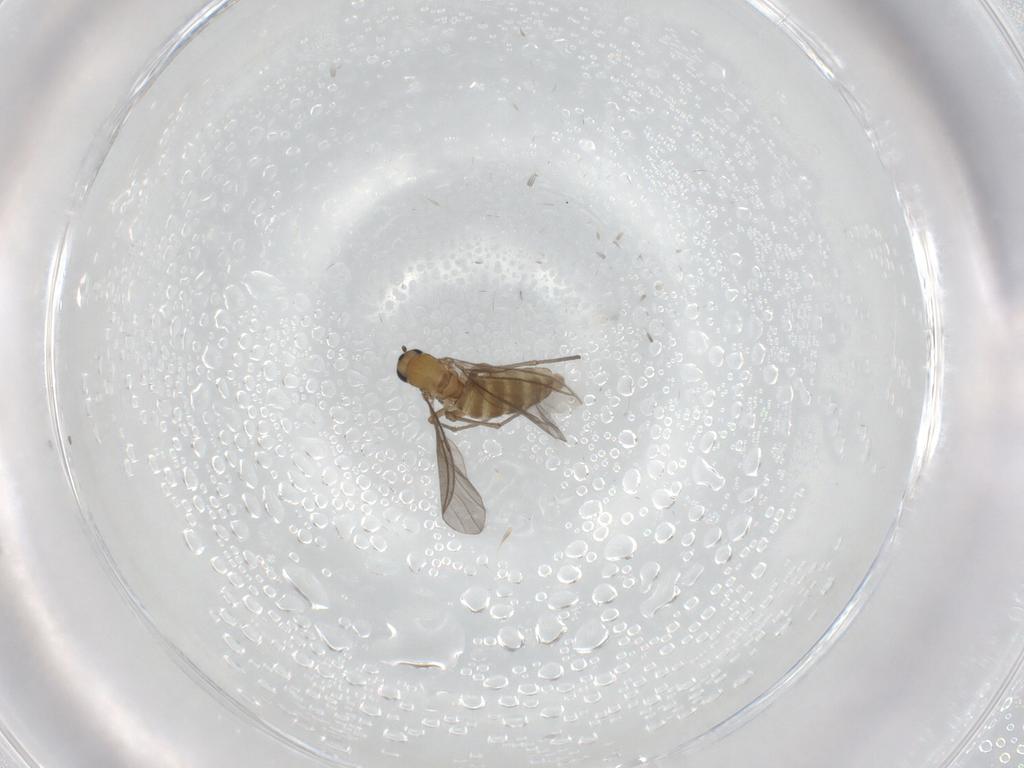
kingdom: Animalia
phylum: Arthropoda
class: Insecta
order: Diptera
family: Sciaridae
